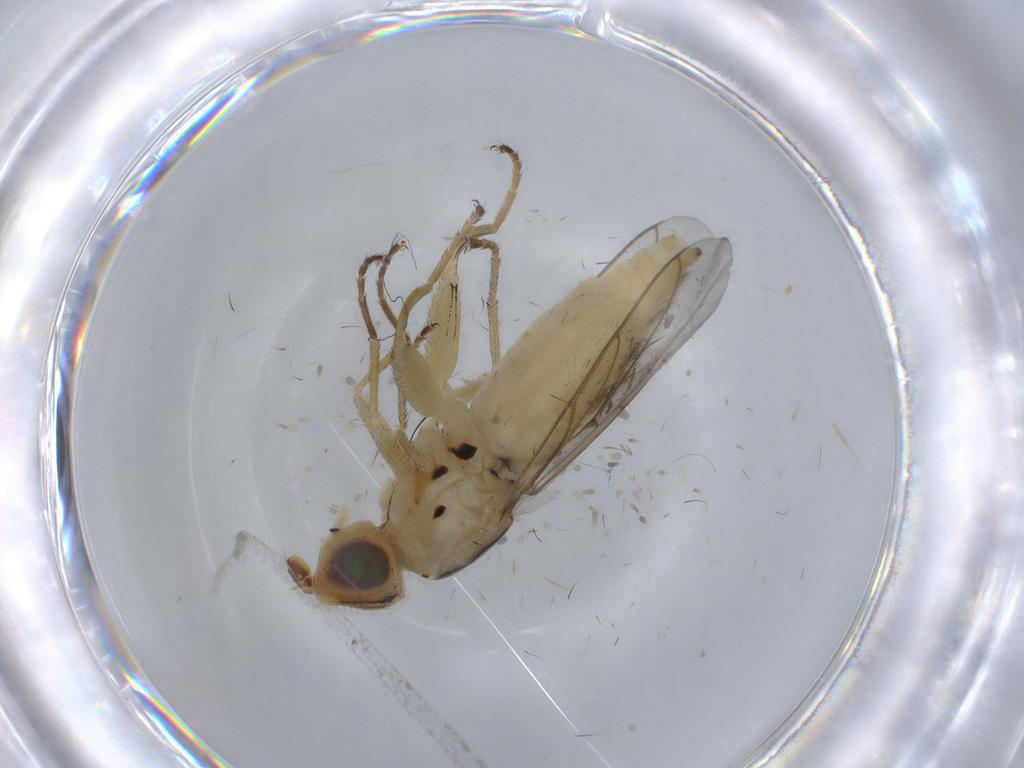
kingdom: Animalia
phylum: Arthropoda
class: Insecta
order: Diptera
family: Chloropidae
